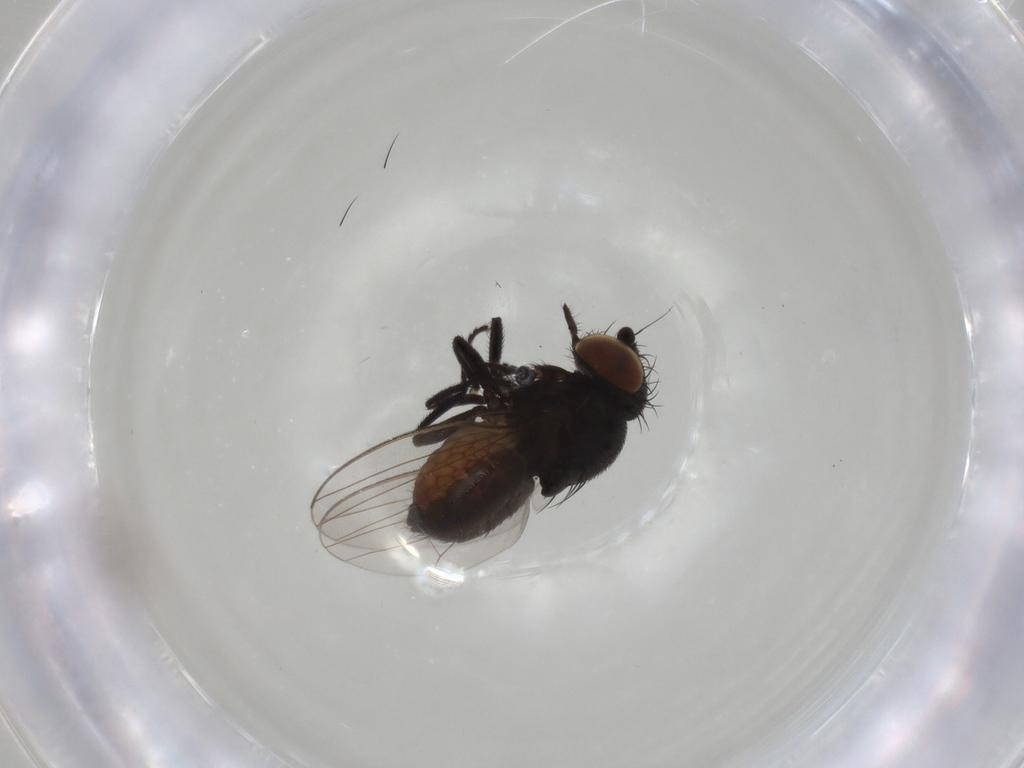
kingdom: Animalia
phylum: Arthropoda
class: Insecta
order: Diptera
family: Milichiidae
